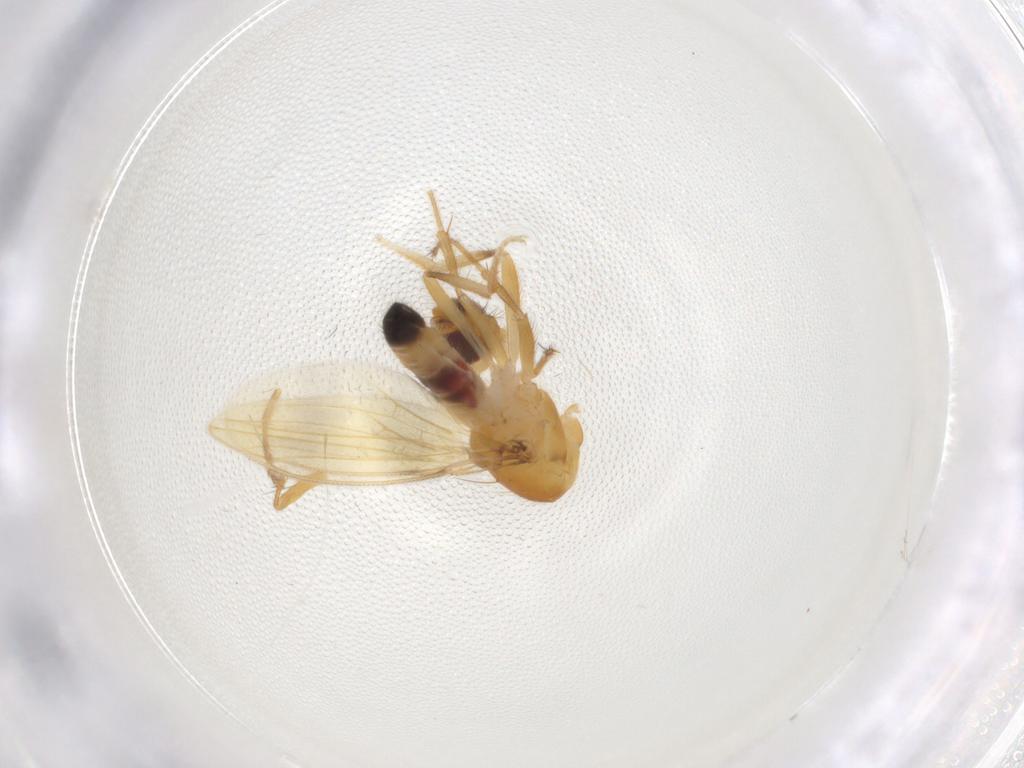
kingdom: Animalia
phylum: Arthropoda
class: Insecta
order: Diptera
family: Periscelididae
